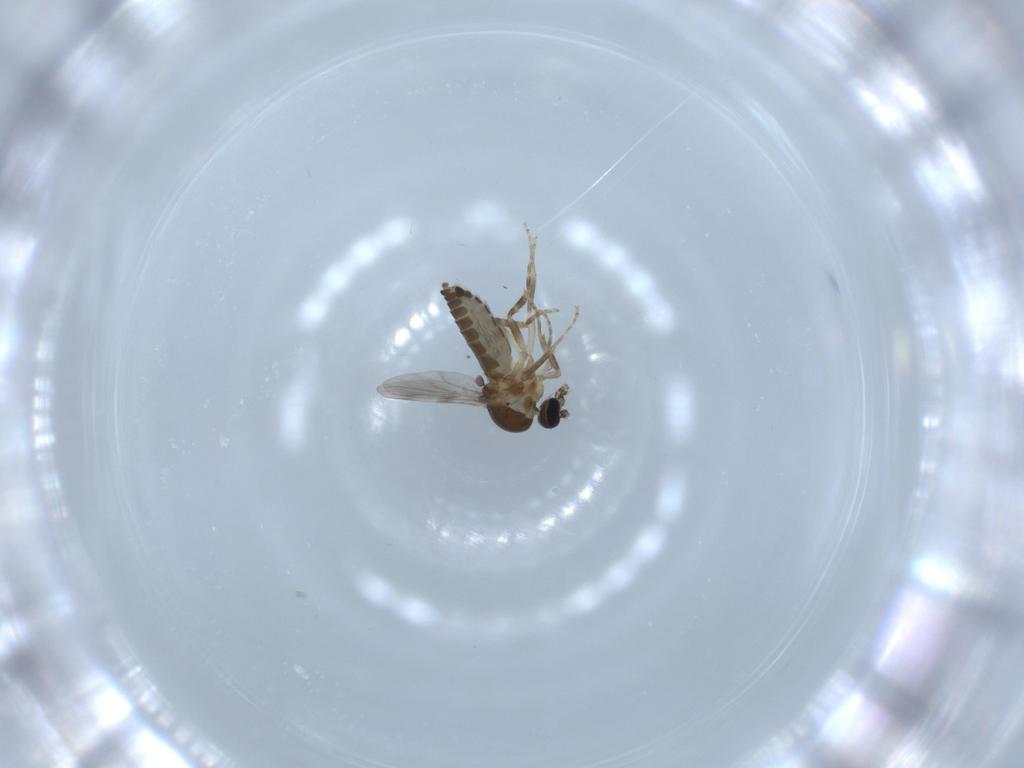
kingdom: Animalia
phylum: Arthropoda
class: Insecta
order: Diptera
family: Ceratopogonidae
